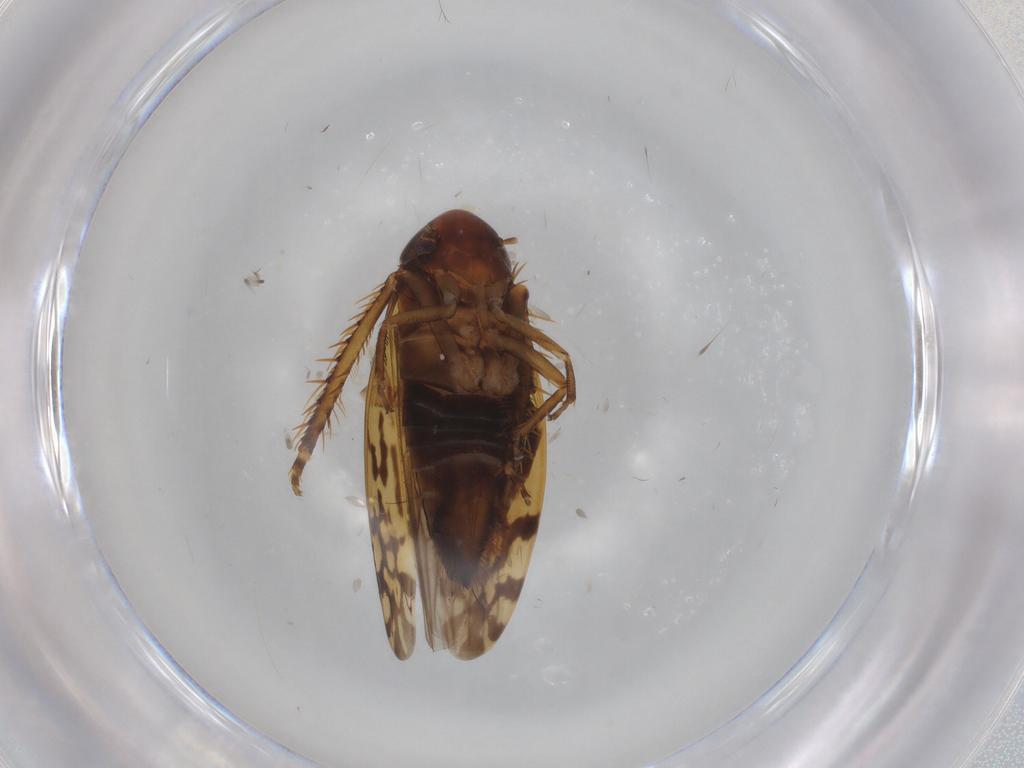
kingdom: Animalia
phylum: Arthropoda
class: Insecta
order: Hemiptera
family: Cicadellidae
